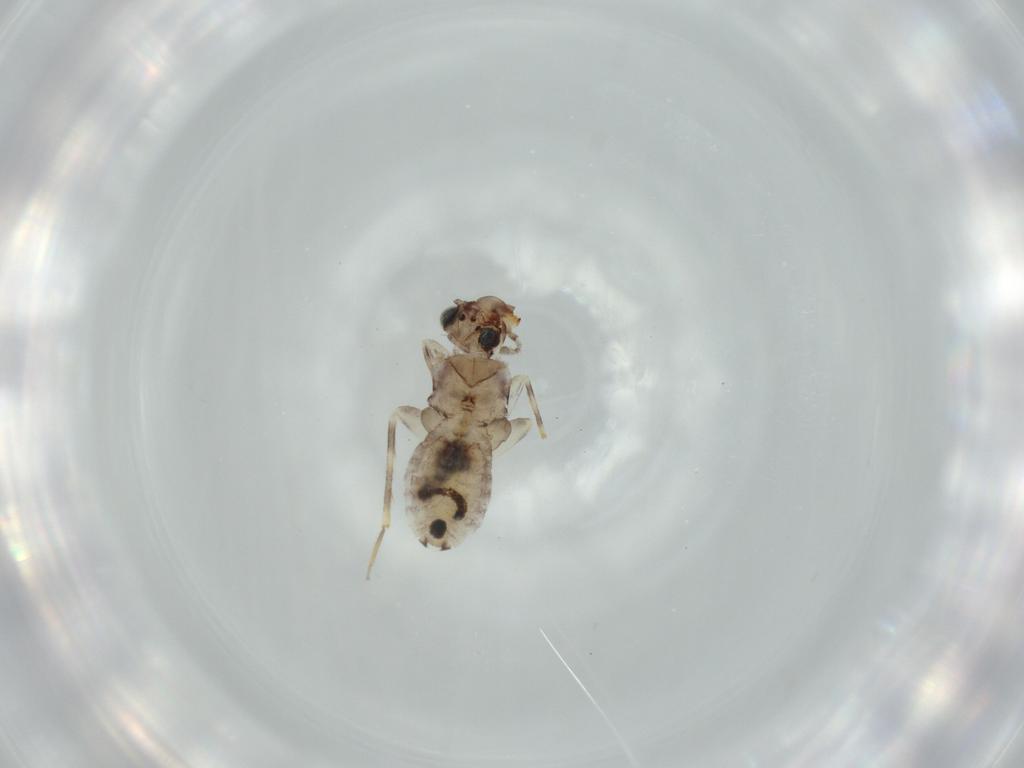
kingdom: Animalia
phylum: Arthropoda
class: Insecta
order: Psocodea
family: Lepidopsocidae
